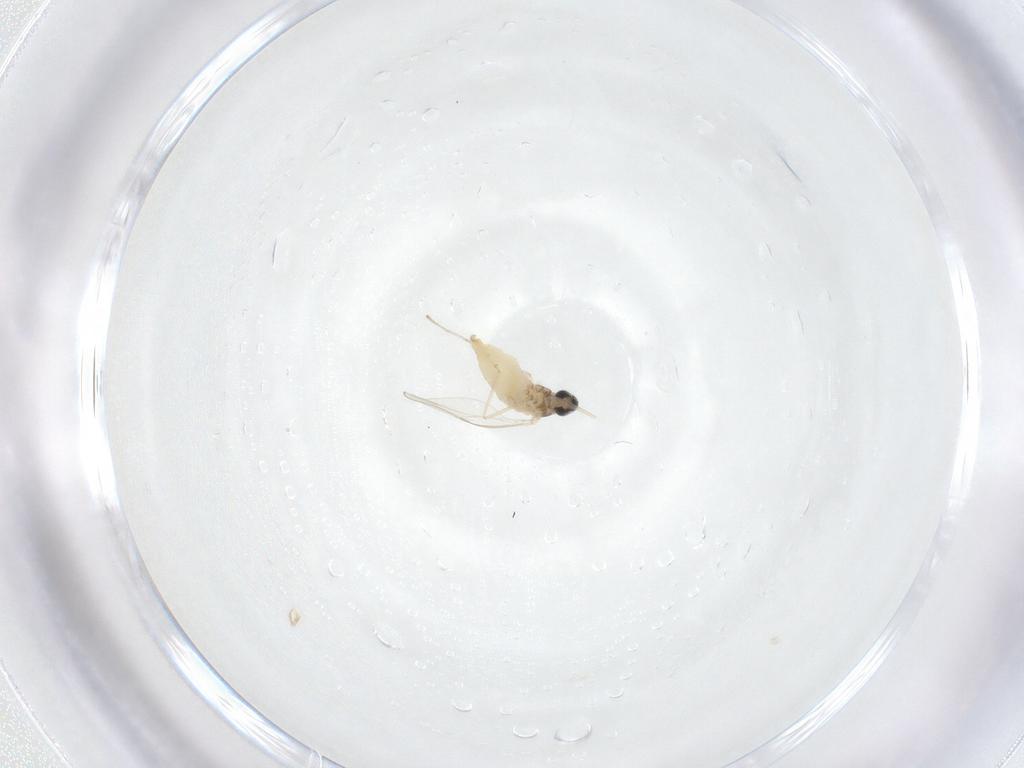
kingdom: Animalia
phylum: Arthropoda
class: Insecta
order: Diptera
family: Cecidomyiidae
